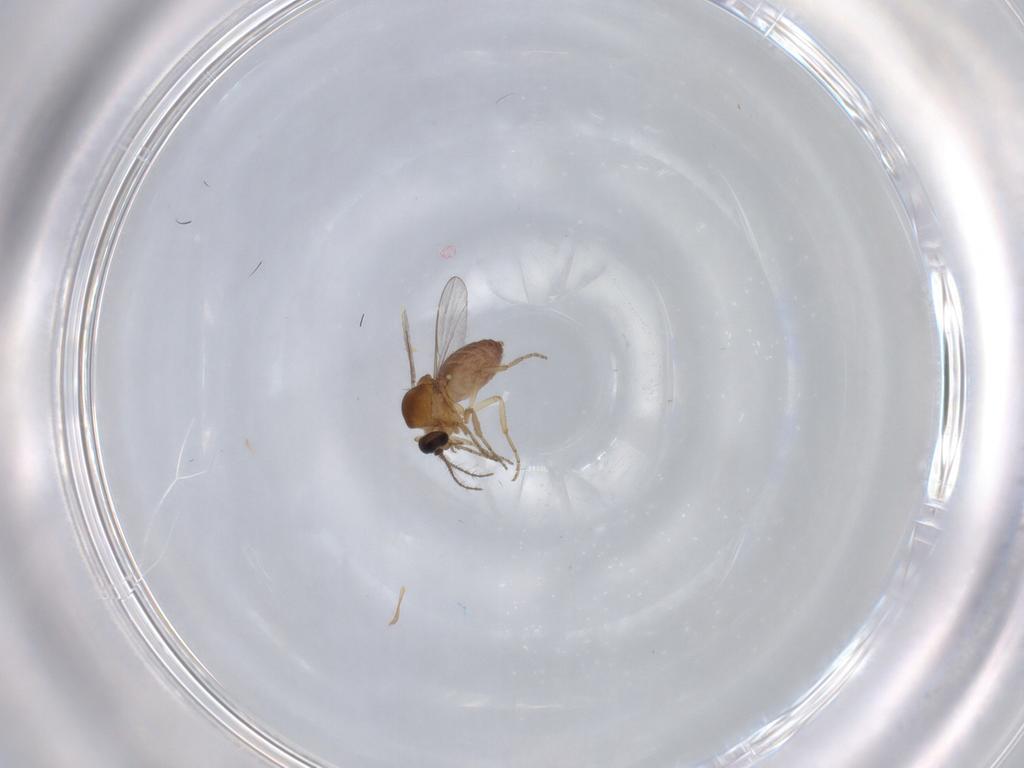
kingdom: Animalia
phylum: Arthropoda
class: Insecta
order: Diptera
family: Ceratopogonidae
